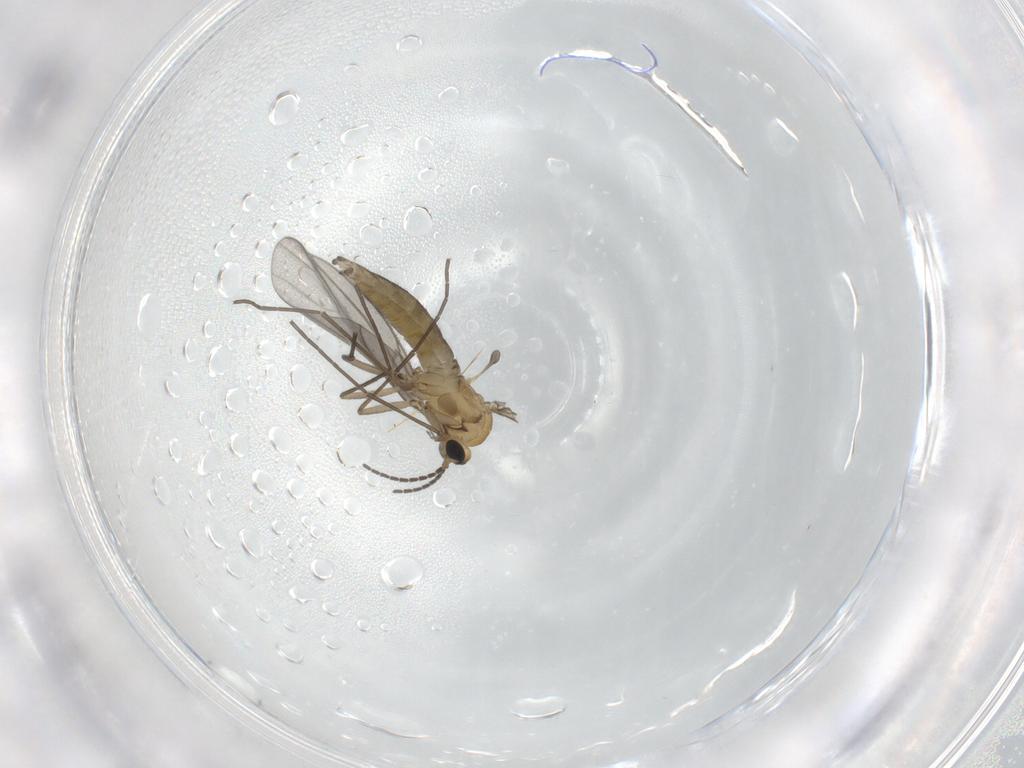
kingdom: Animalia
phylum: Arthropoda
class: Insecta
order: Diptera
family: Sciaridae
